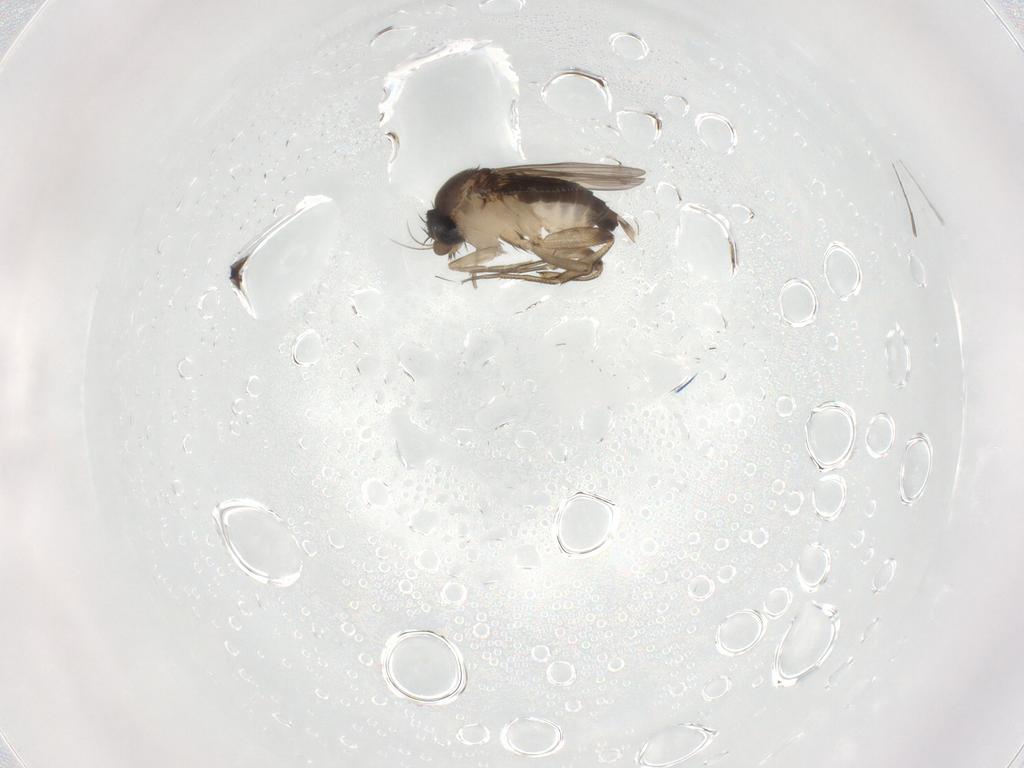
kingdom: Animalia
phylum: Arthropoda
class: Insecta
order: Diptera
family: Phoridae
